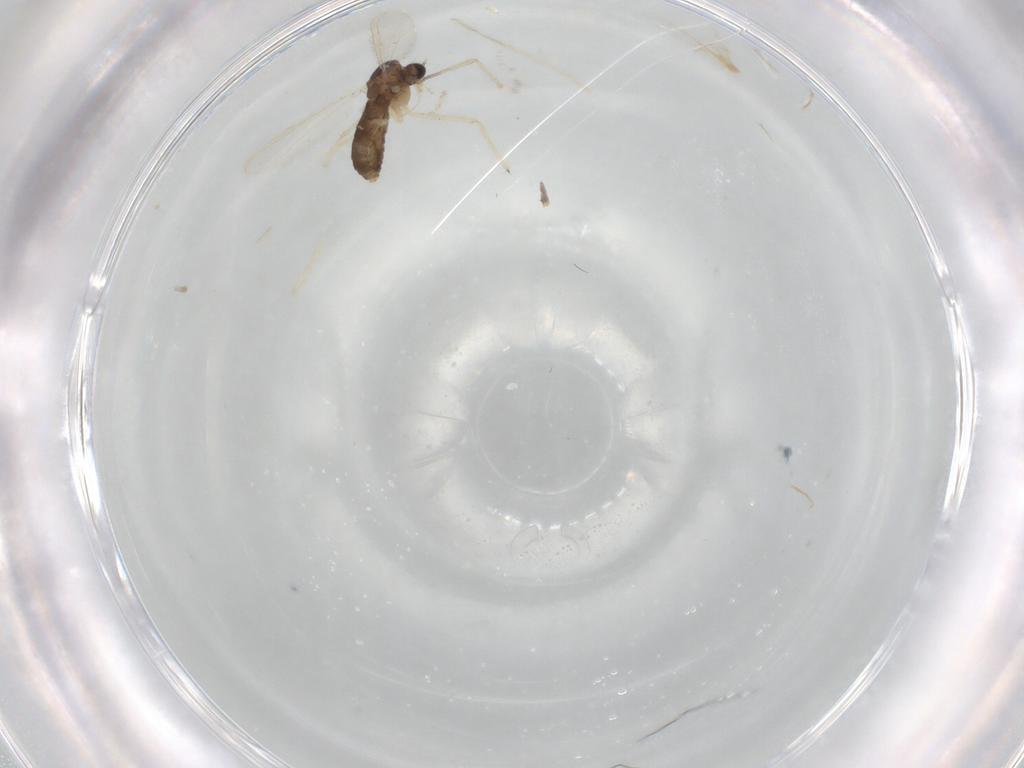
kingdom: Animalia
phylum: Arthropoda
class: Insecta
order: Diptera
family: Chironomidae
